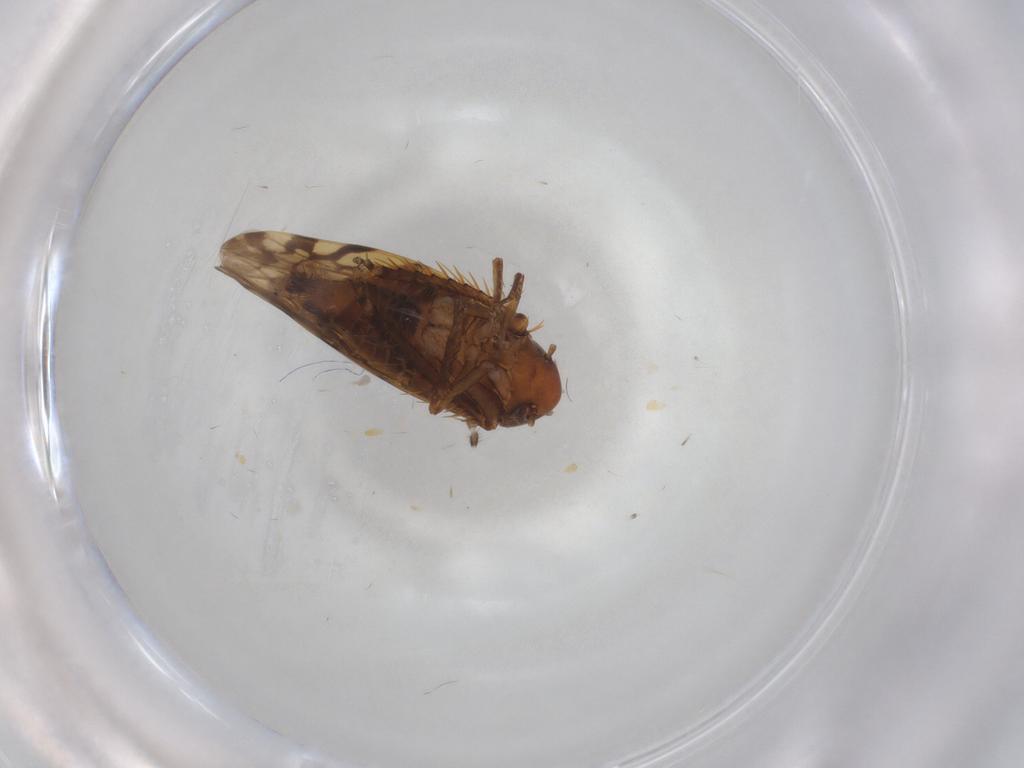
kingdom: Animalia
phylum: Arthropoda
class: Insecta
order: Hemiptera
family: Cicadellidae
